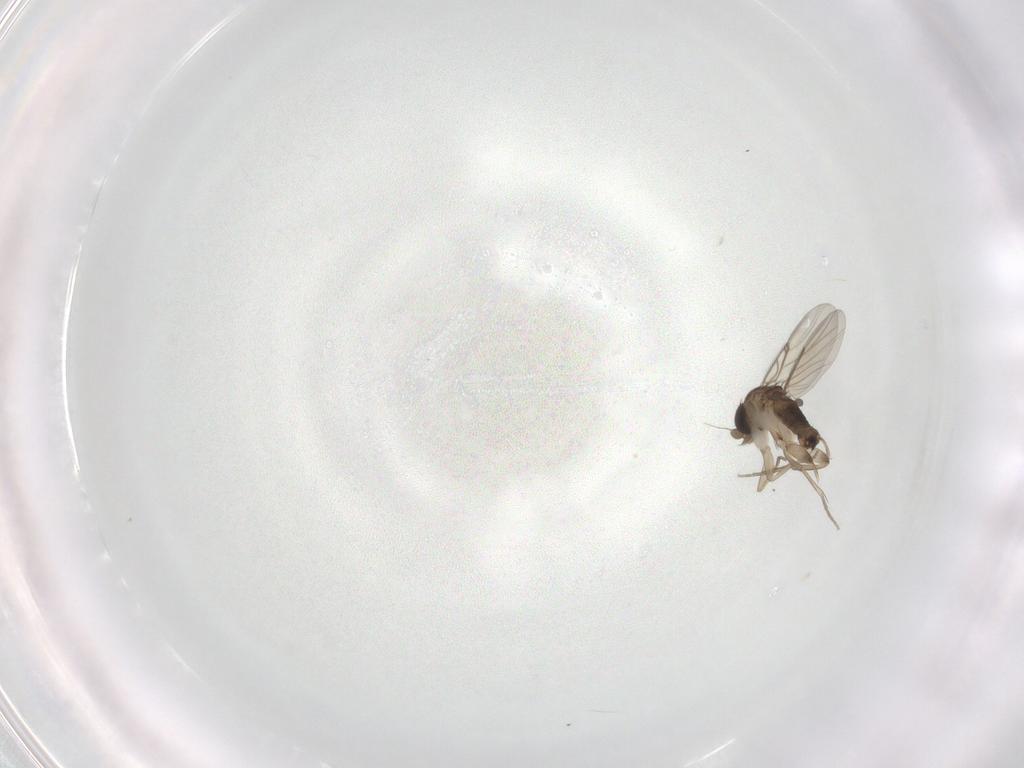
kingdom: Animalia
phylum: Arthropoda
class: Insecta
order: Diptera
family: Phoridae
